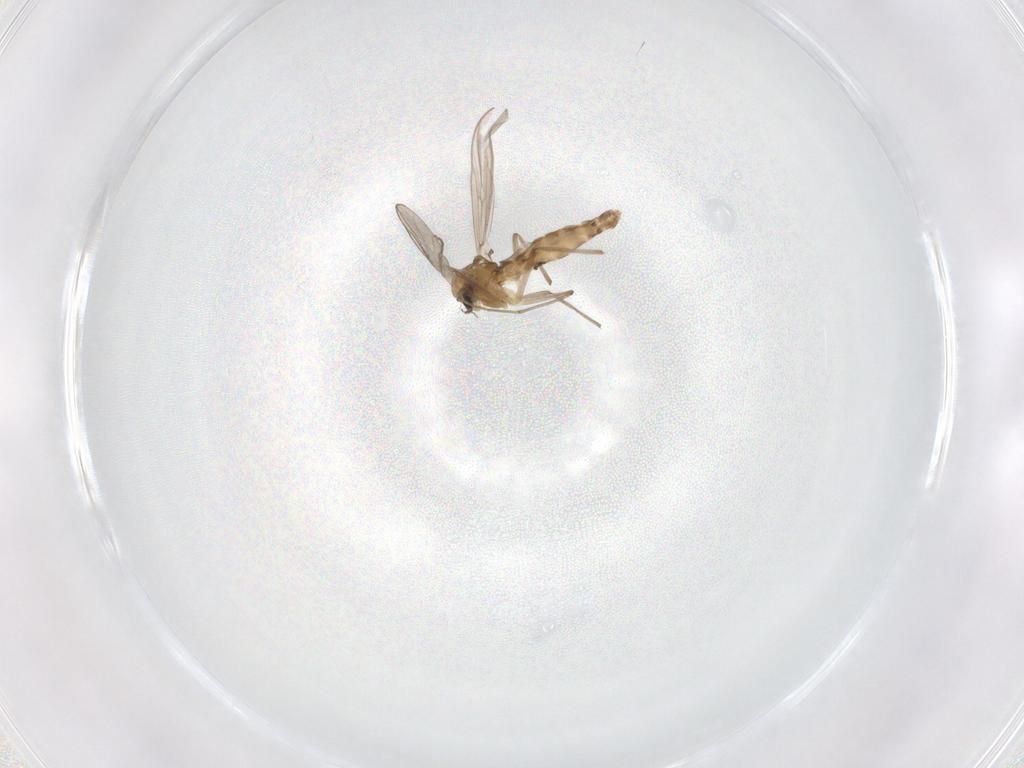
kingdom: Animalia
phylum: Arthropoda
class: Insecta
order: Diptera
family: Chironomidae
